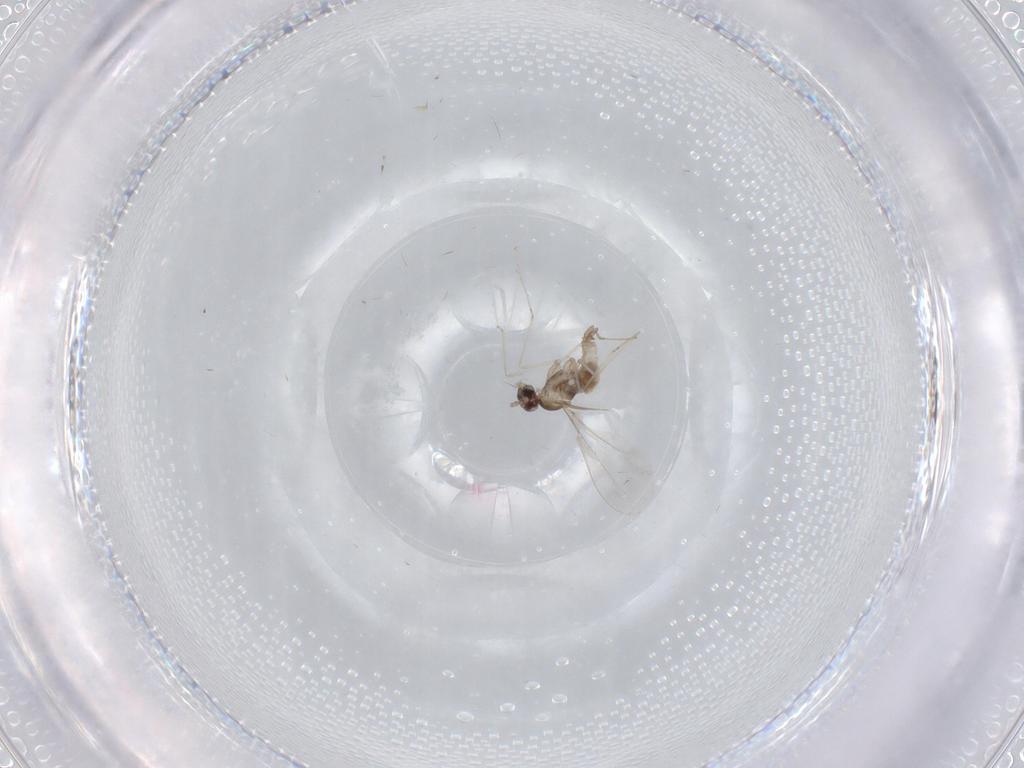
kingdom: Animalia
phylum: Arthropoda
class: Insecta
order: Diptera
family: Cecidomyiidae
